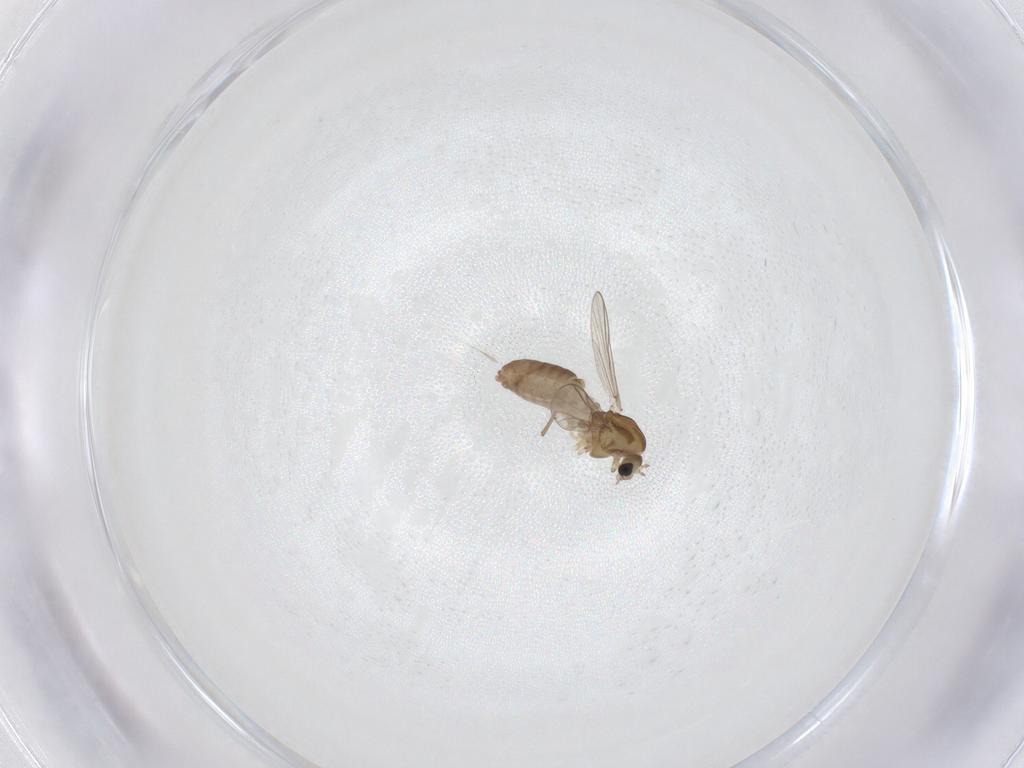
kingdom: Animalia
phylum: Arthropoda
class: Insecta
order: Diptera
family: Chironomidae
